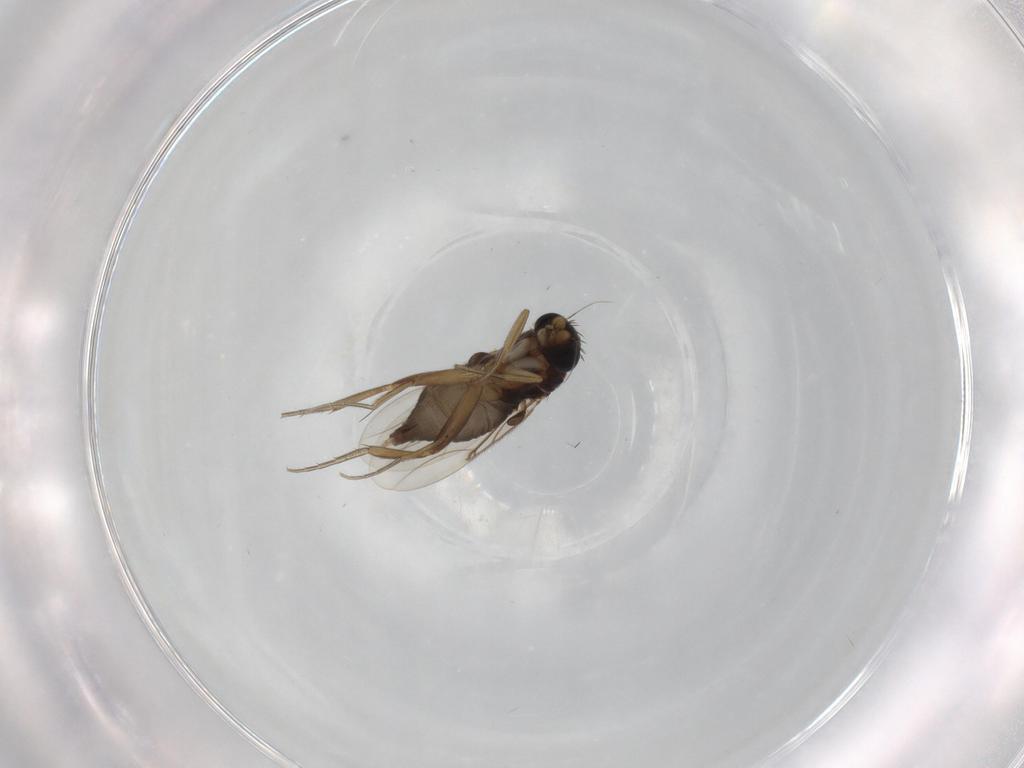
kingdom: Animalia
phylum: Arthropoda
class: Insecta
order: Diptera
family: Phoridae
